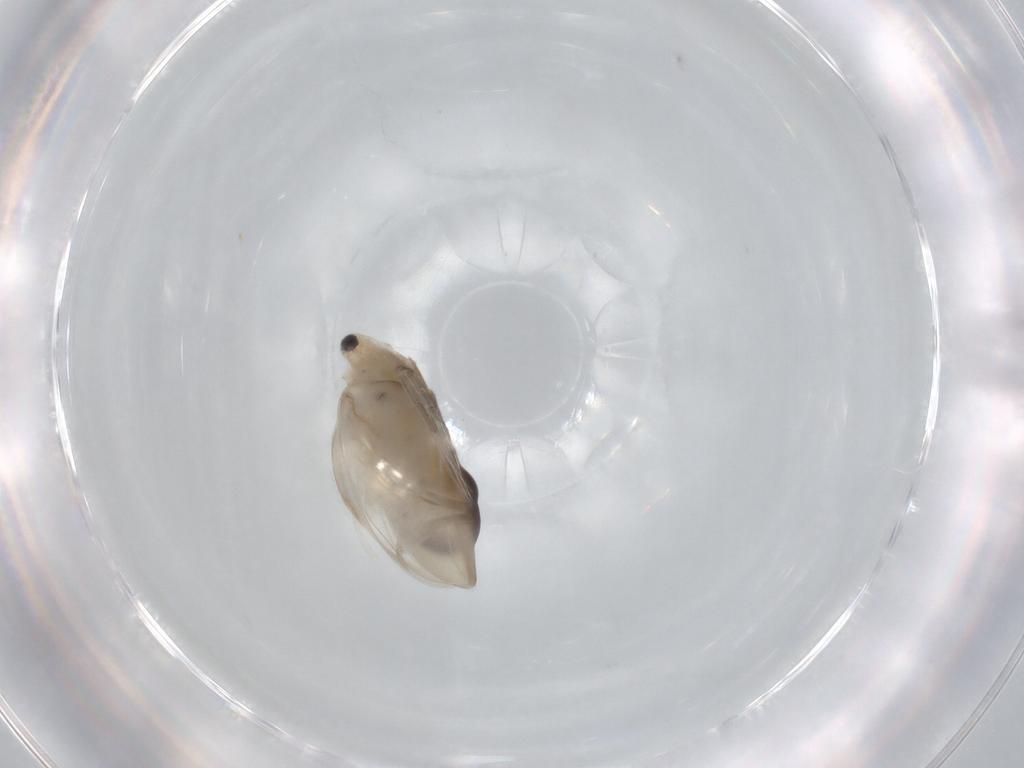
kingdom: Animalia
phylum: Arthropoda
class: Branchiopoda
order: Diplostraca
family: Daphniidae
